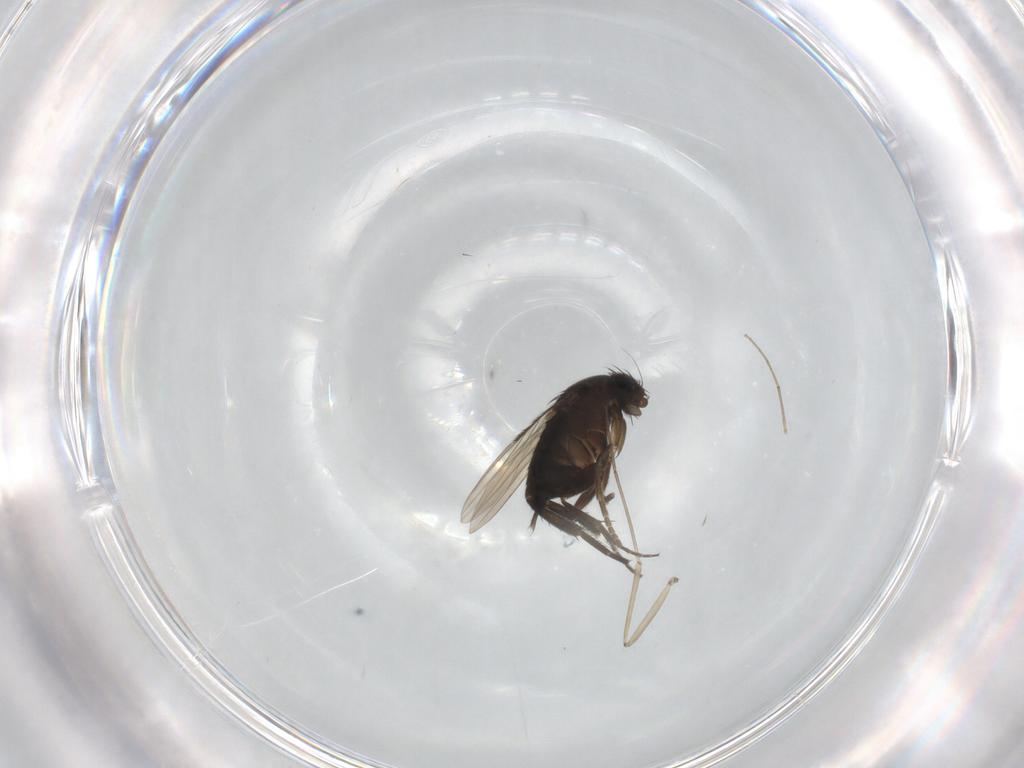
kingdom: Animalia
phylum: Arthropoda
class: Insecta
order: Diptera
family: Phoridae
